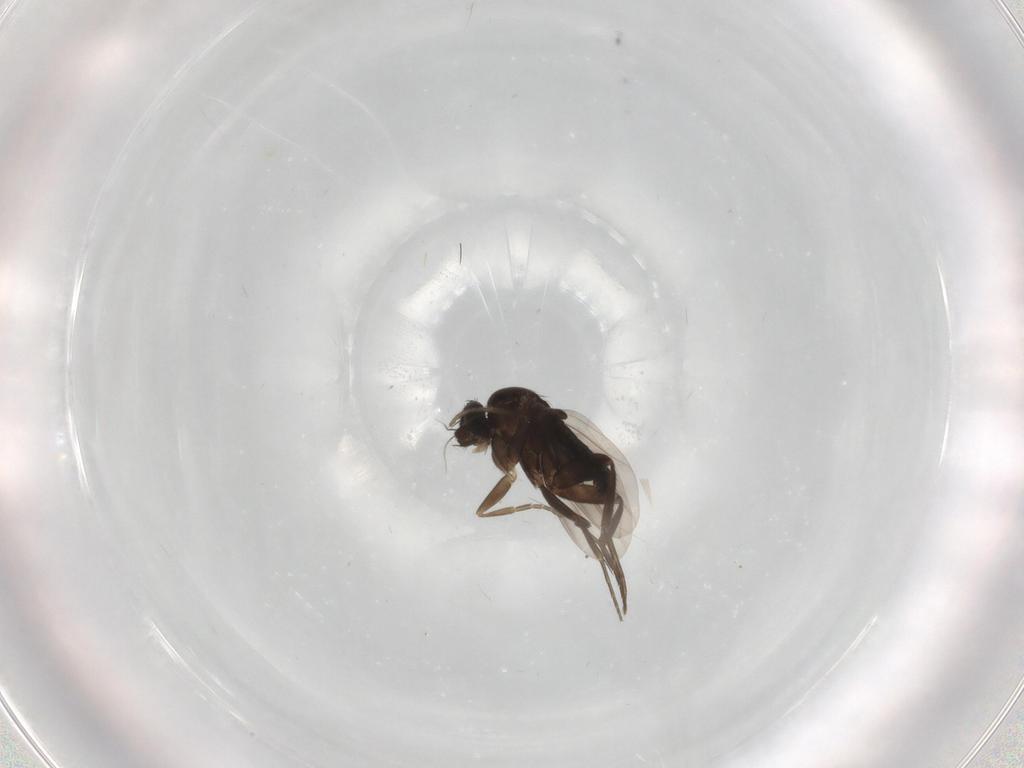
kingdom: Animalia
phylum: Arthropoda
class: Insecta
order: Diptera
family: Phoridae
